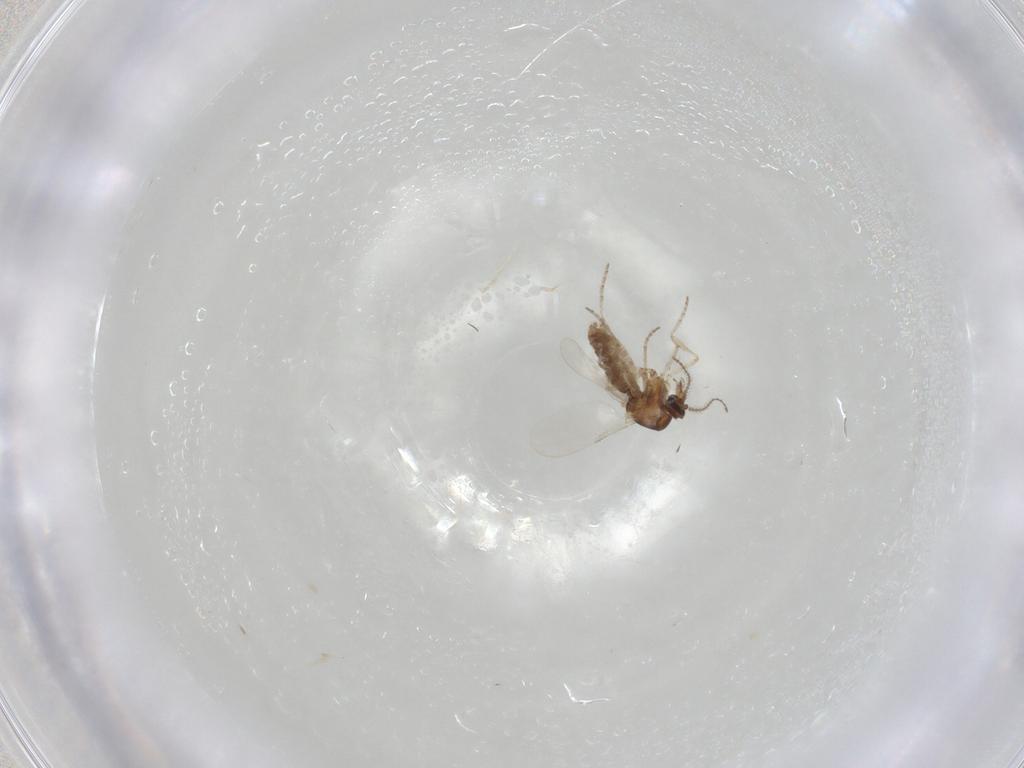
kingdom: Animalia
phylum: Arthropoda
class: Insecta
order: Diptera
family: Ceratopogonidae
